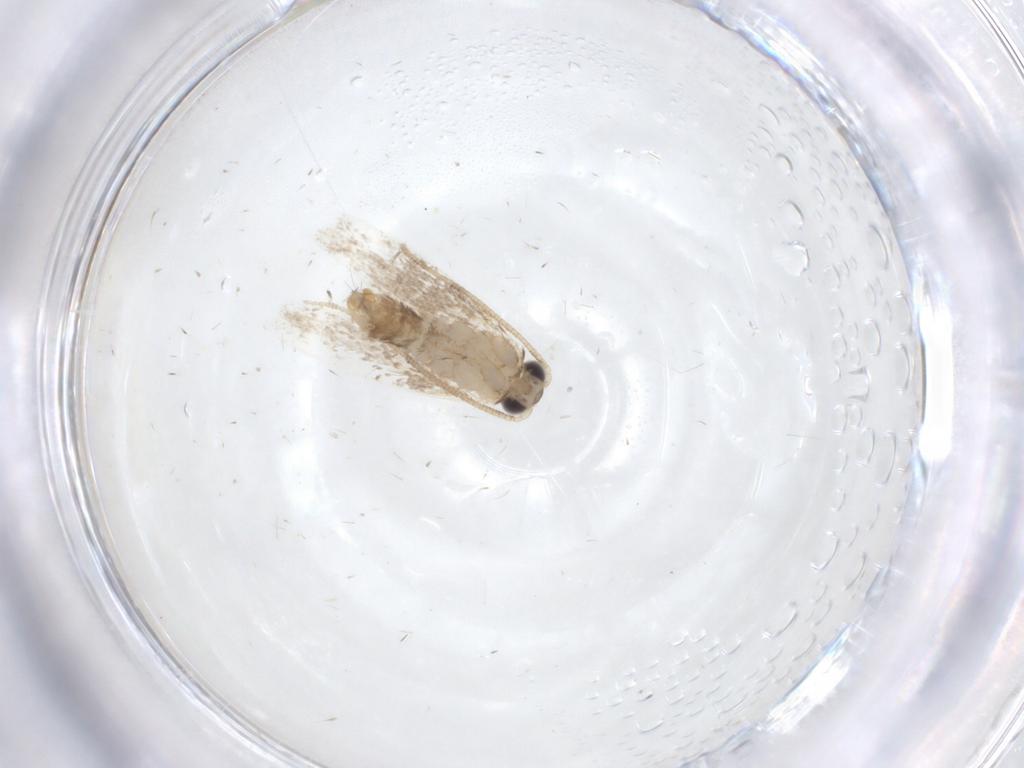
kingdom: Animalia
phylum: Arthropoda
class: Insecta
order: Lepidoptera
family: Dryadaulidae
